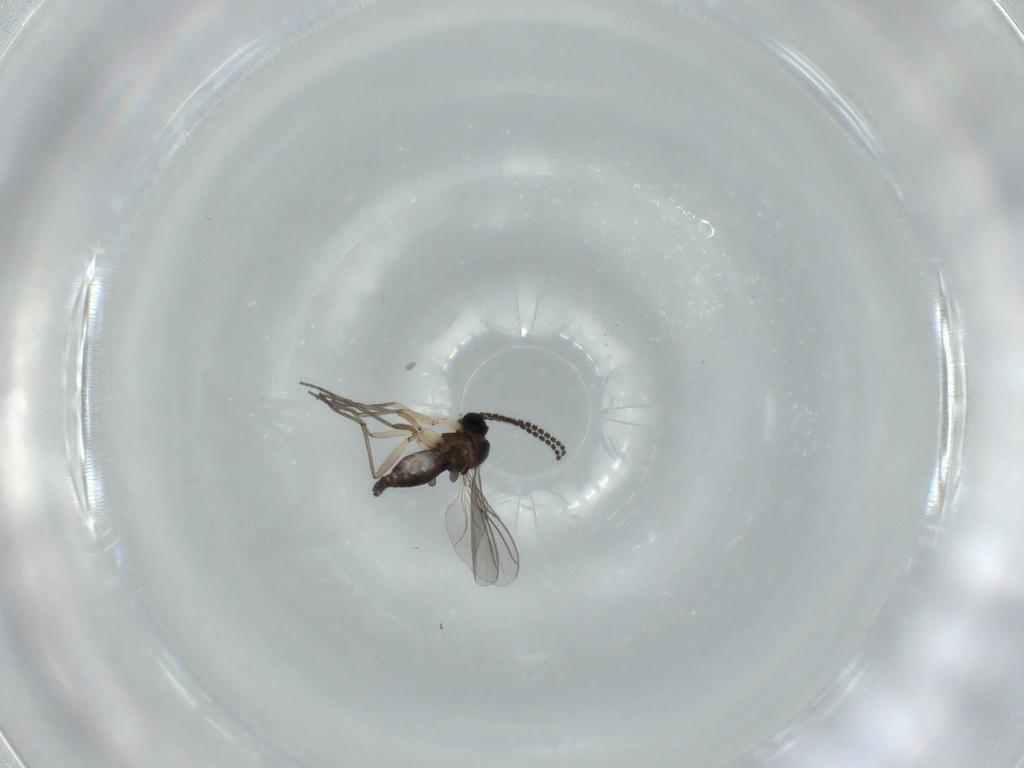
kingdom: Animalia
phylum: Arthropoda
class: Insecta
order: Diptera
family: Sciaridae
